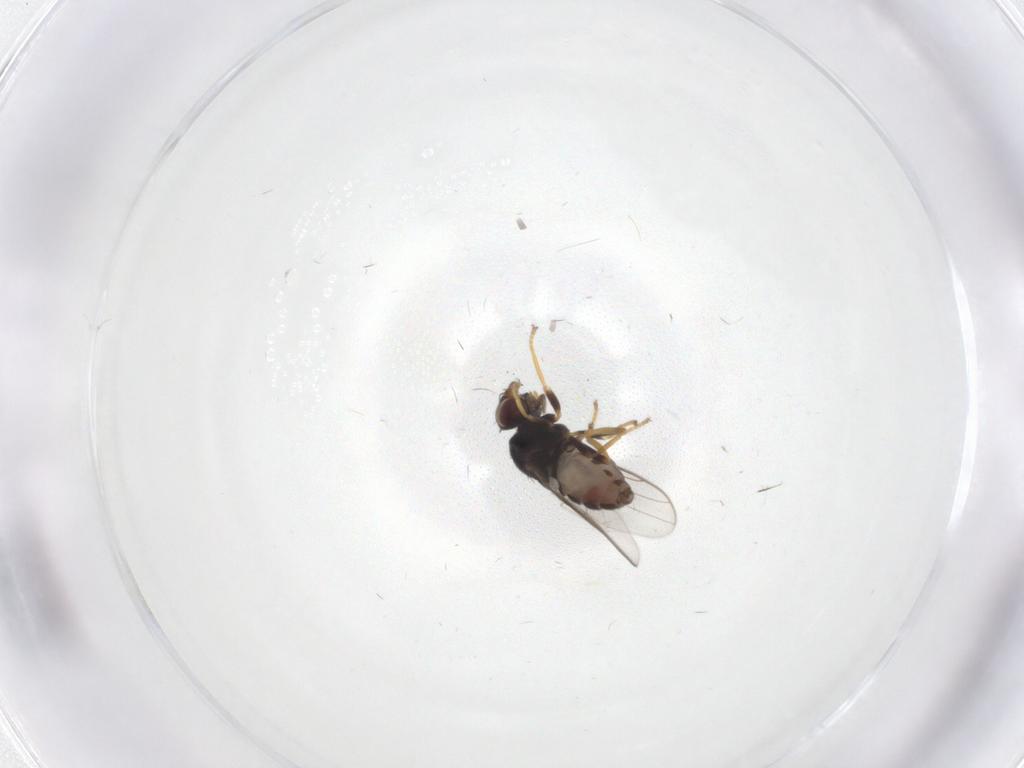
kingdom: Animalia
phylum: Arthropoda
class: Insecta
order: Diptera
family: Chloropidae
